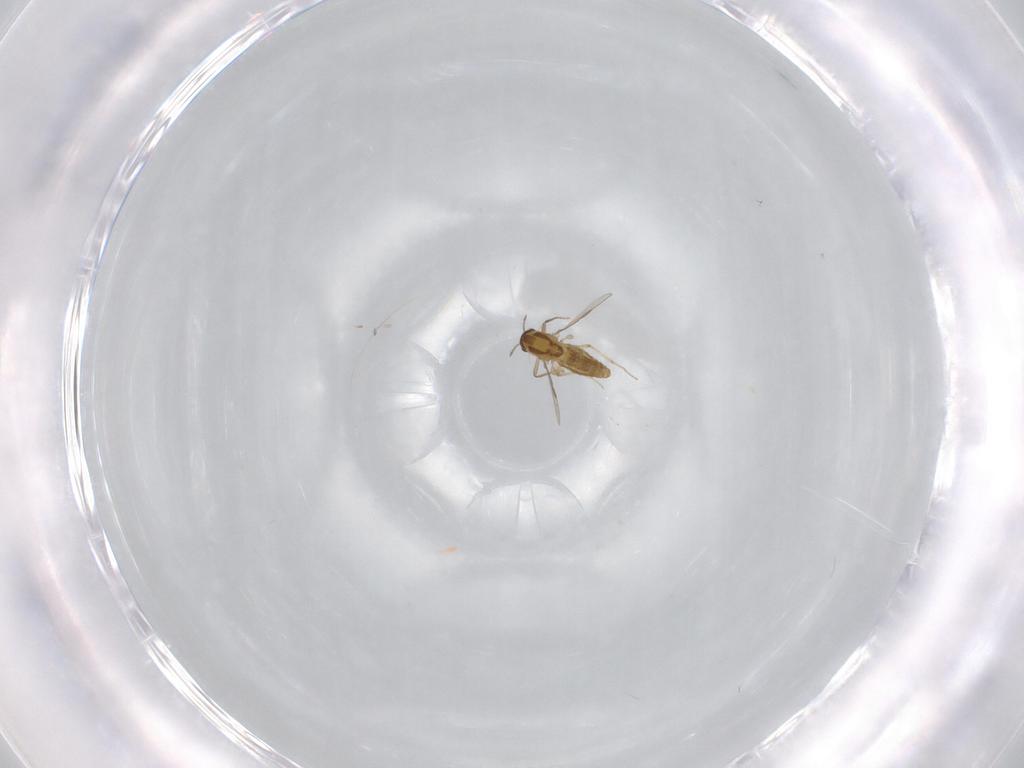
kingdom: Animalia
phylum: Arthropoda
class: Insecta
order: Diptera
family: Chironomidae
